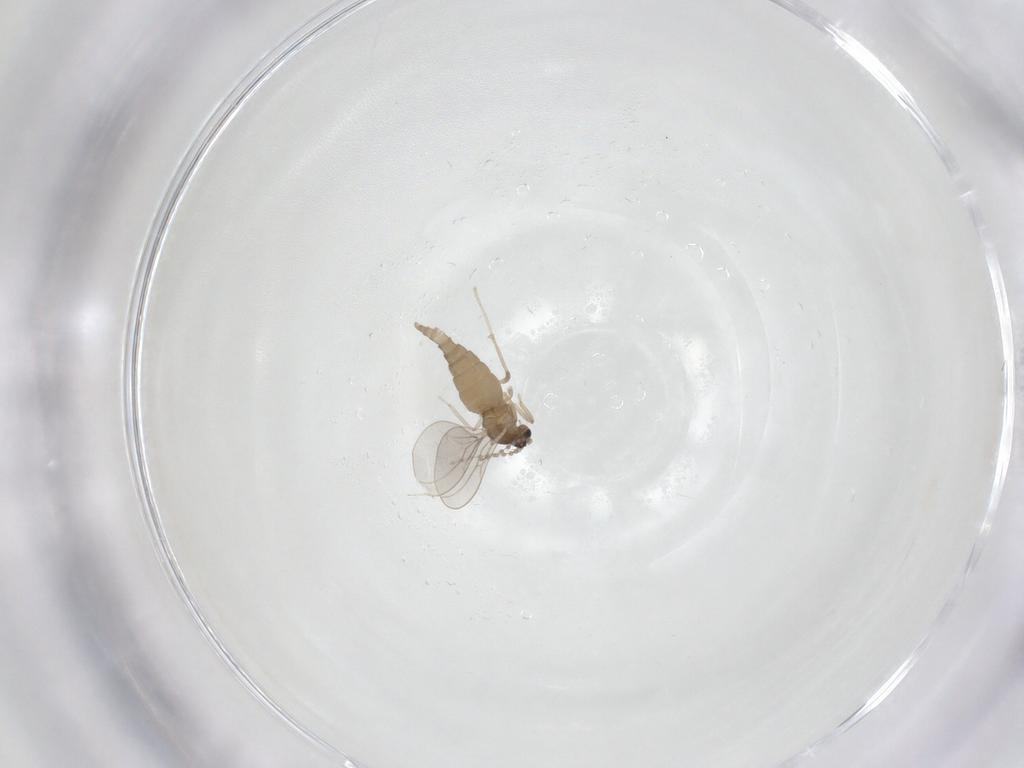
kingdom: Animalia
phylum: Arthropoda
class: Insecta
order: Diptera
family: Cecidomyiidae
